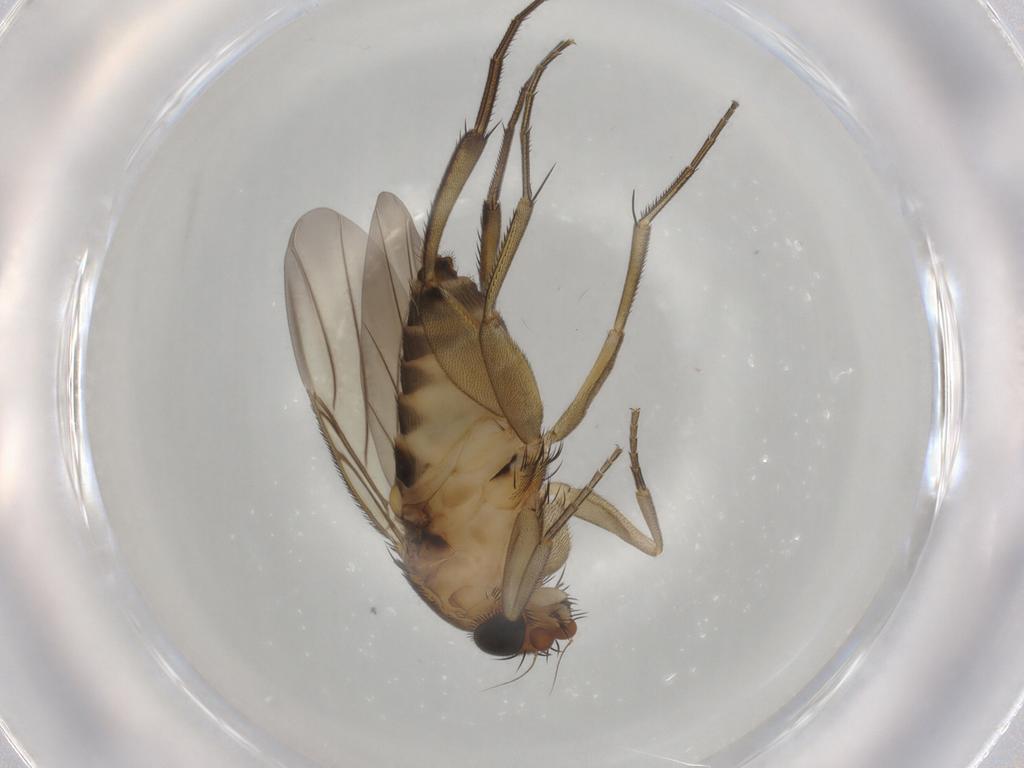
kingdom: Animalia
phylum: Arthropoda
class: Insecta
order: Diptera
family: Phoridae
